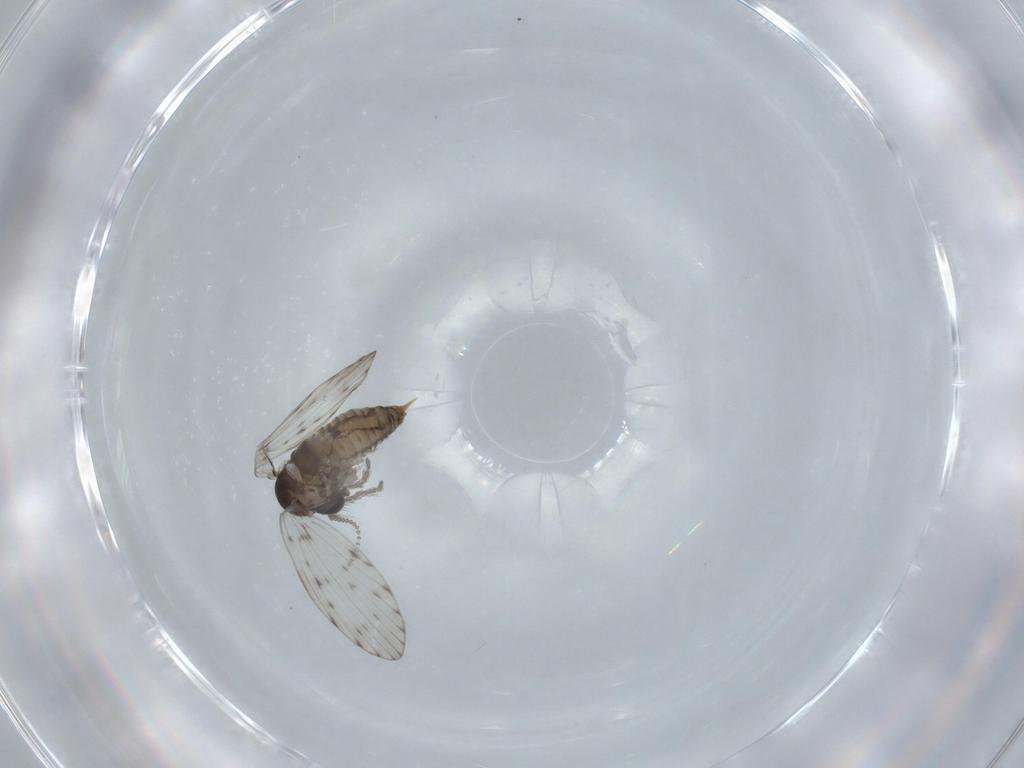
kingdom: Animalia
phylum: Arthropoda
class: Insecta
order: Diptera
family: Psychodidae
